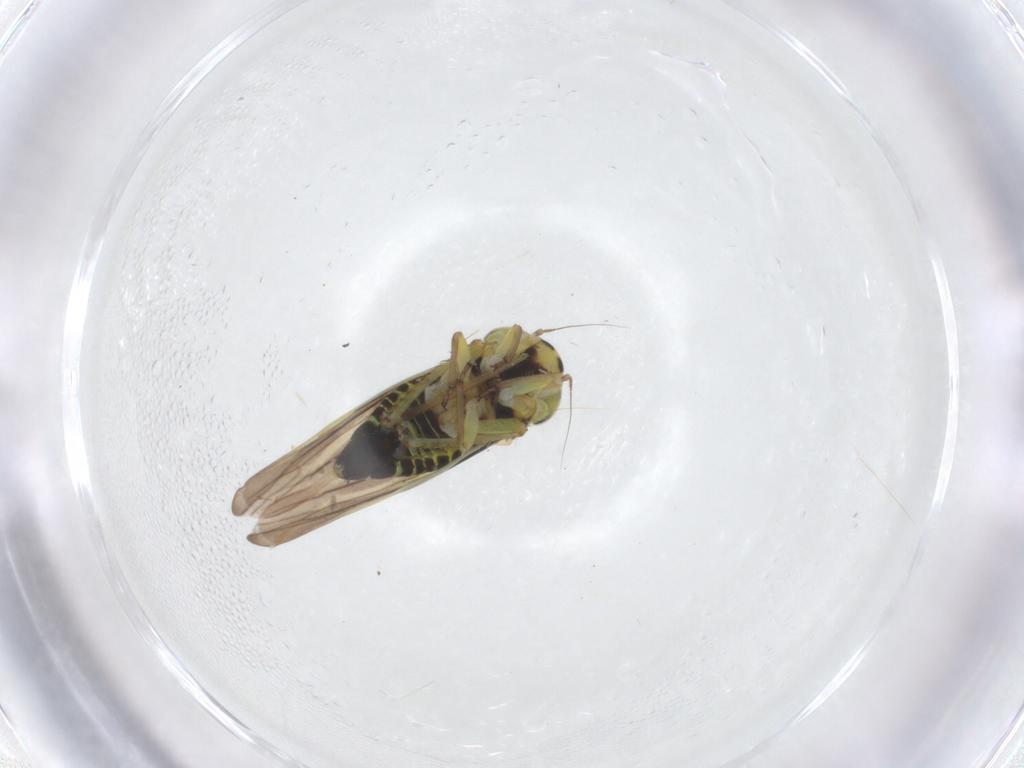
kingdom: Animalia
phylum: Arthropoda
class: Insecta
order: Hemiptera
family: Cicadellidae
